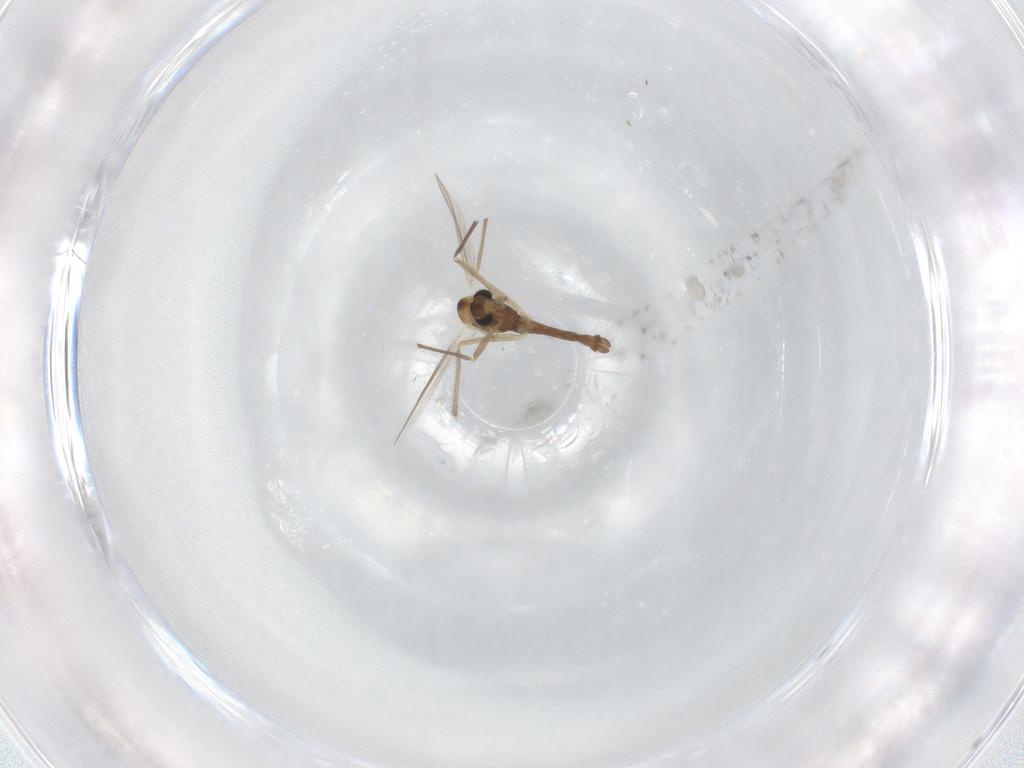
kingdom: Animalia
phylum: Arthropoda
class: Insecta
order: Diptera
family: Chironomidae
